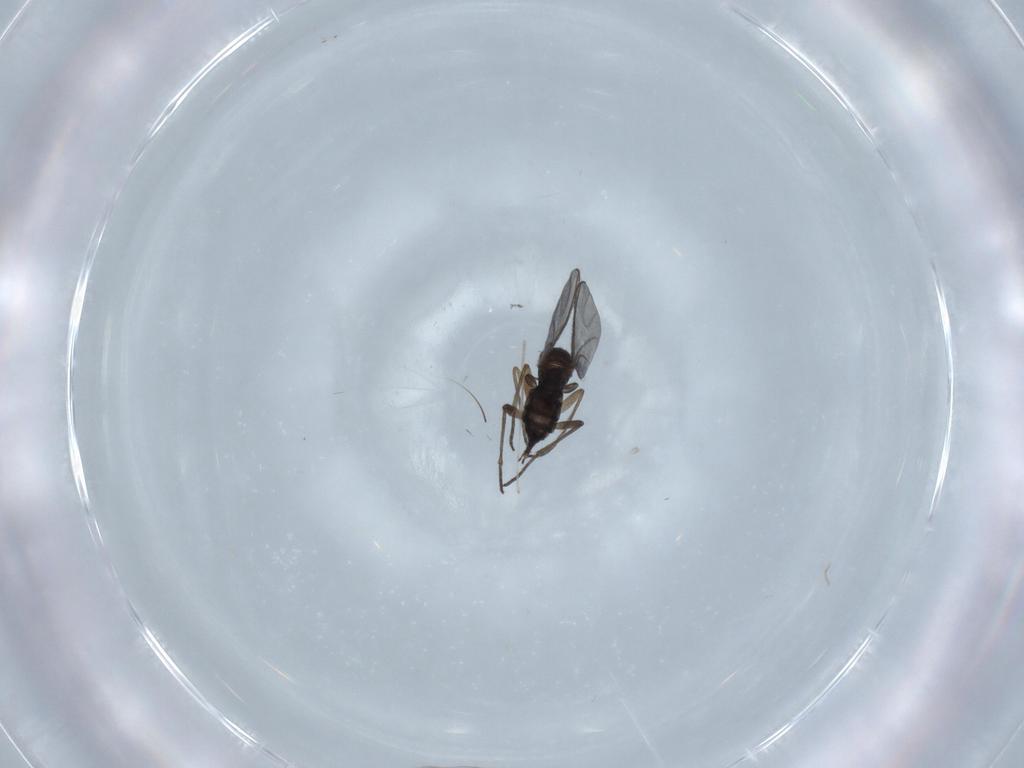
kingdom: Animalia
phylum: Arthropoda
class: Insecta
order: Diptera
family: Sciaridae
